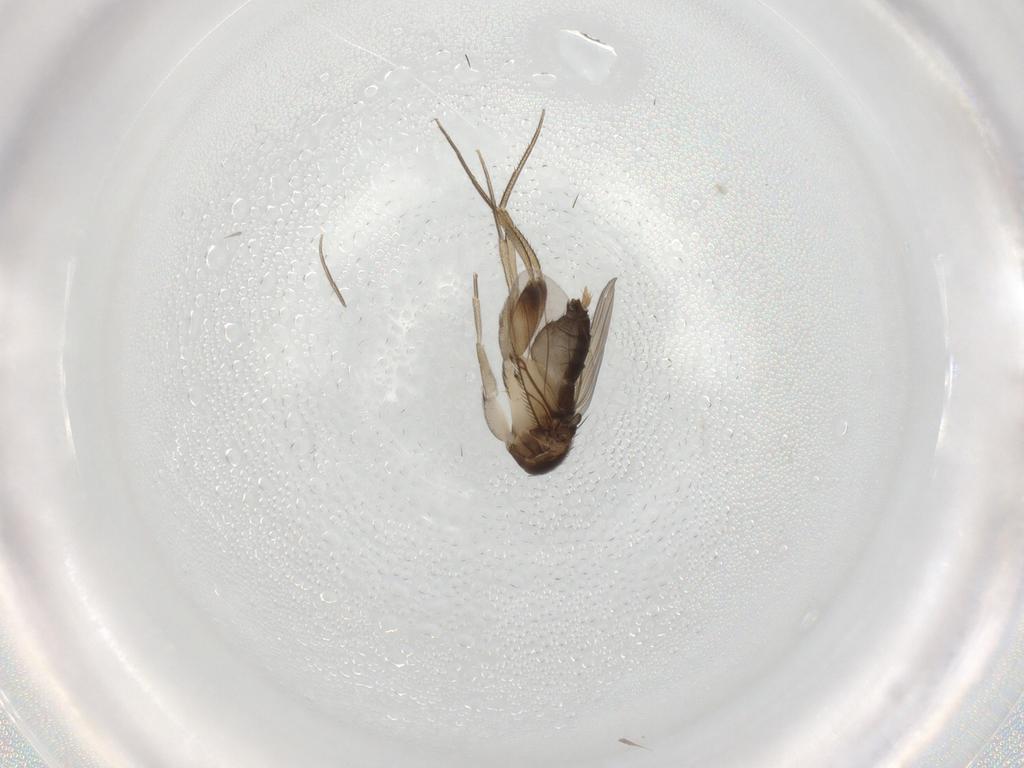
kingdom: Animalia
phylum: Arthropoda
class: Insecta
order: Diptera
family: Phoridae
